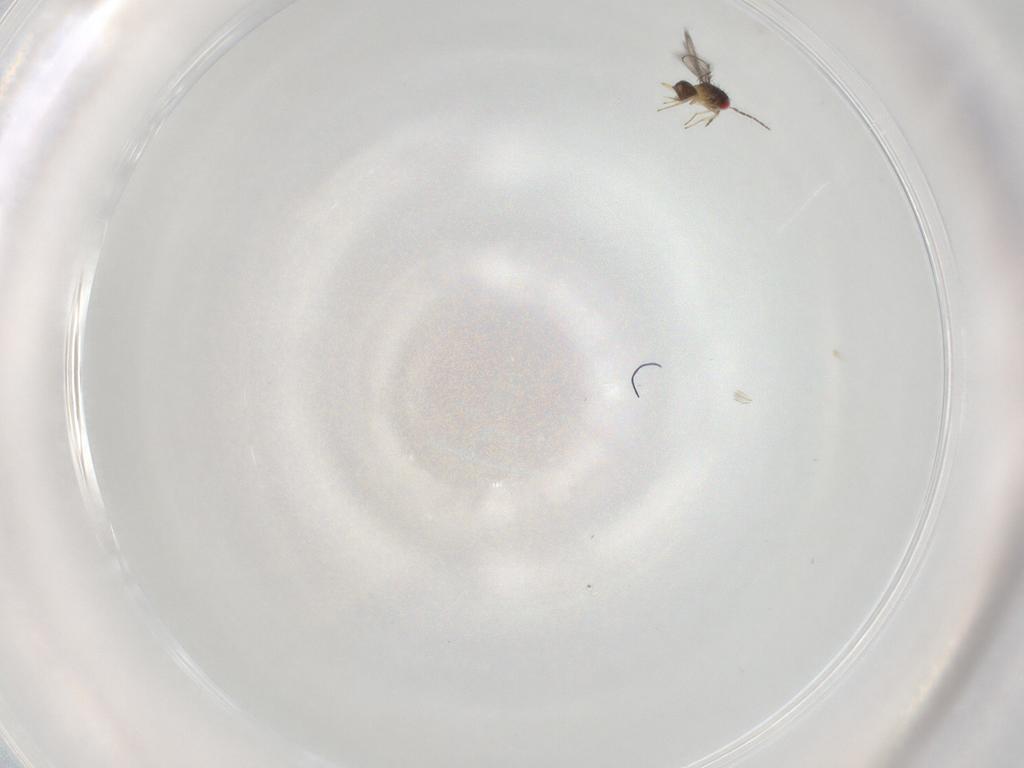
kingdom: Animalia
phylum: Arthropoda
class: Insecta
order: Hymenoptera
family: Eulophidae
